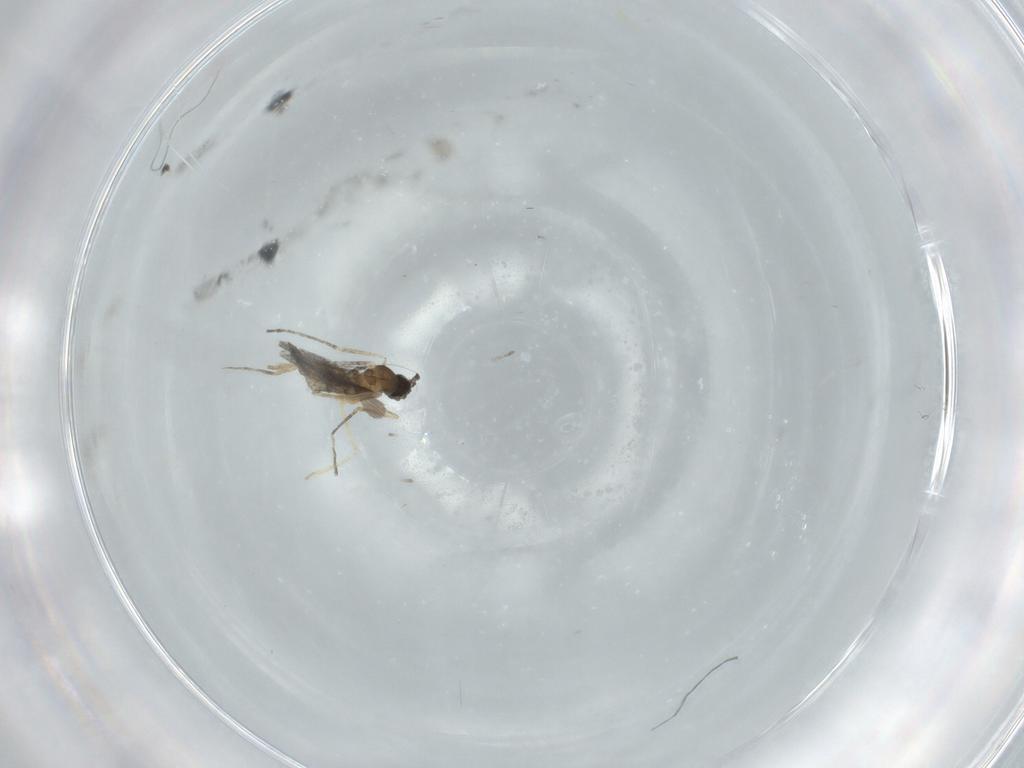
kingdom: Animalia
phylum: Arthropoda
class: Insecta
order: Diptera
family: Cecidomyiidae
